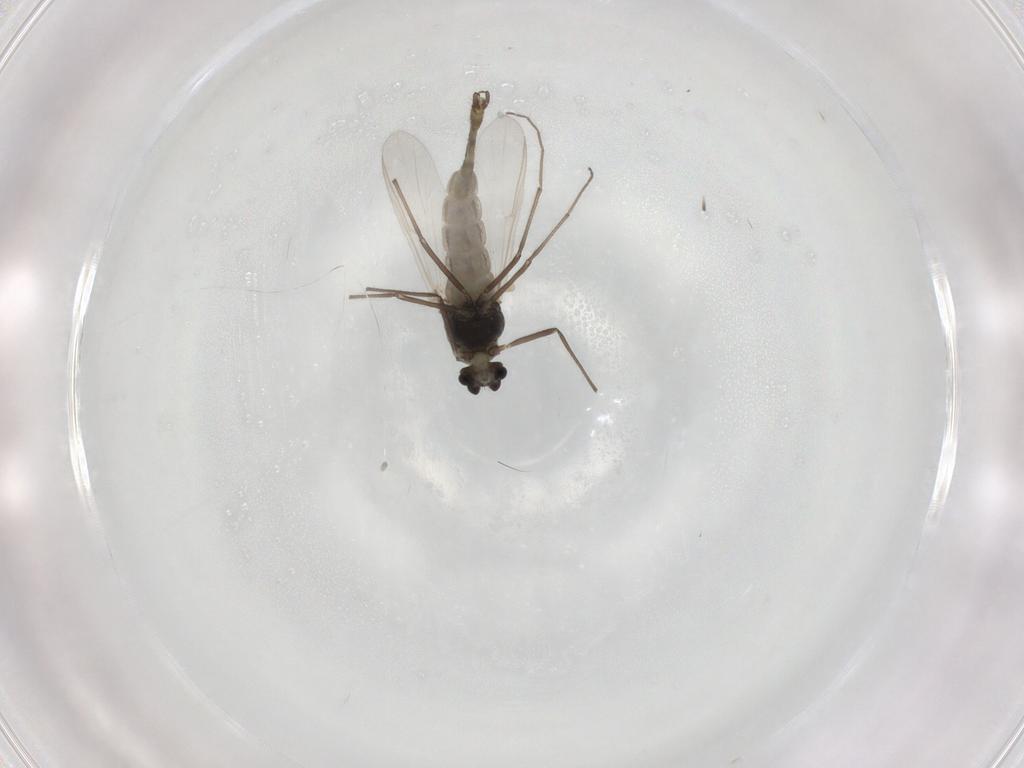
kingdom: Animalia
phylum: Arthropoda
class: Insecta
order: Diptera
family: Chironomidae
